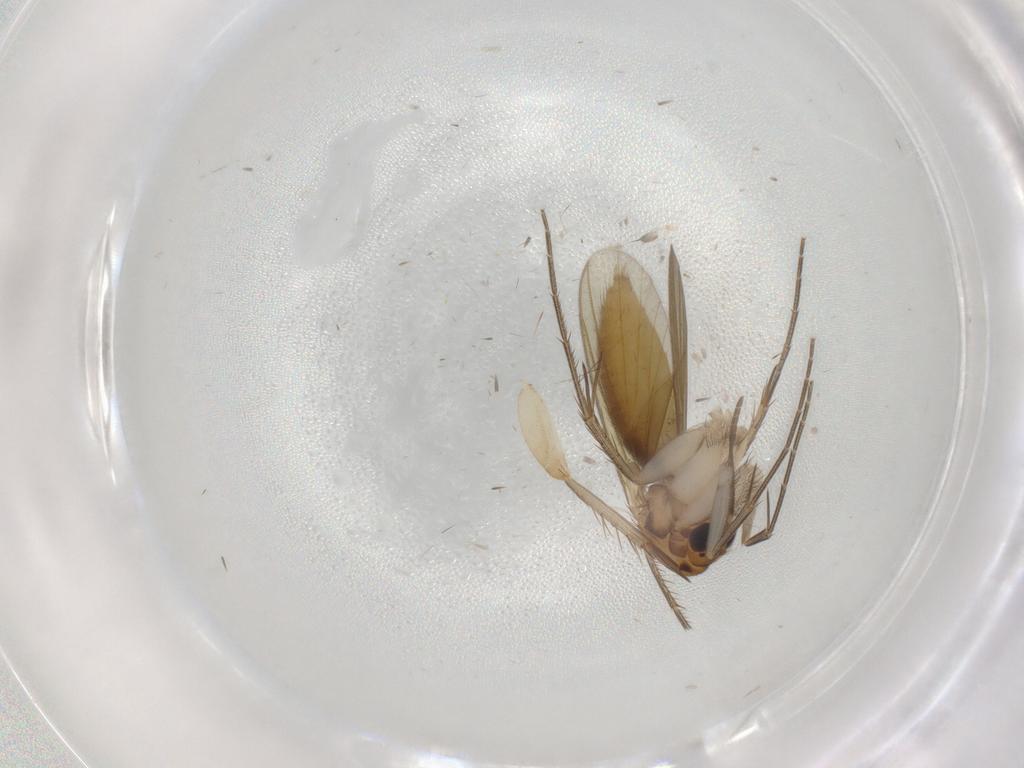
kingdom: Animalia
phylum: Arthropoda
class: Insecta
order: Diptera
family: Mycetophilidae
